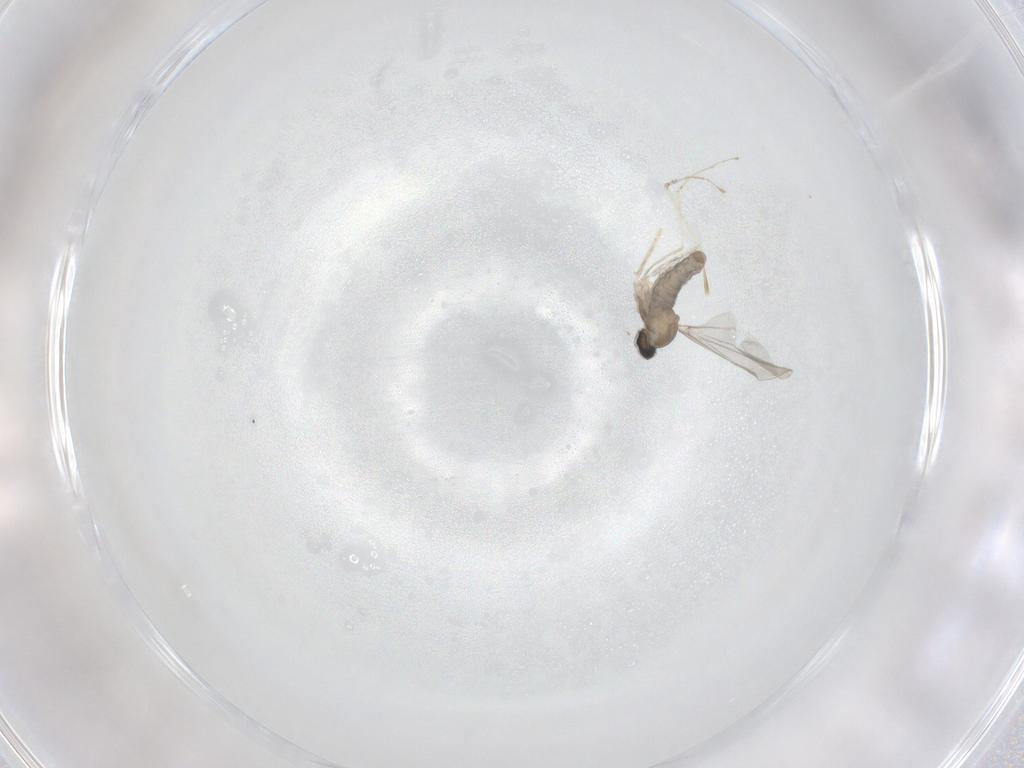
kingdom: Animalia
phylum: Arthropoda
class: Insecta
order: Diptera
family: Cecidomyiidae
